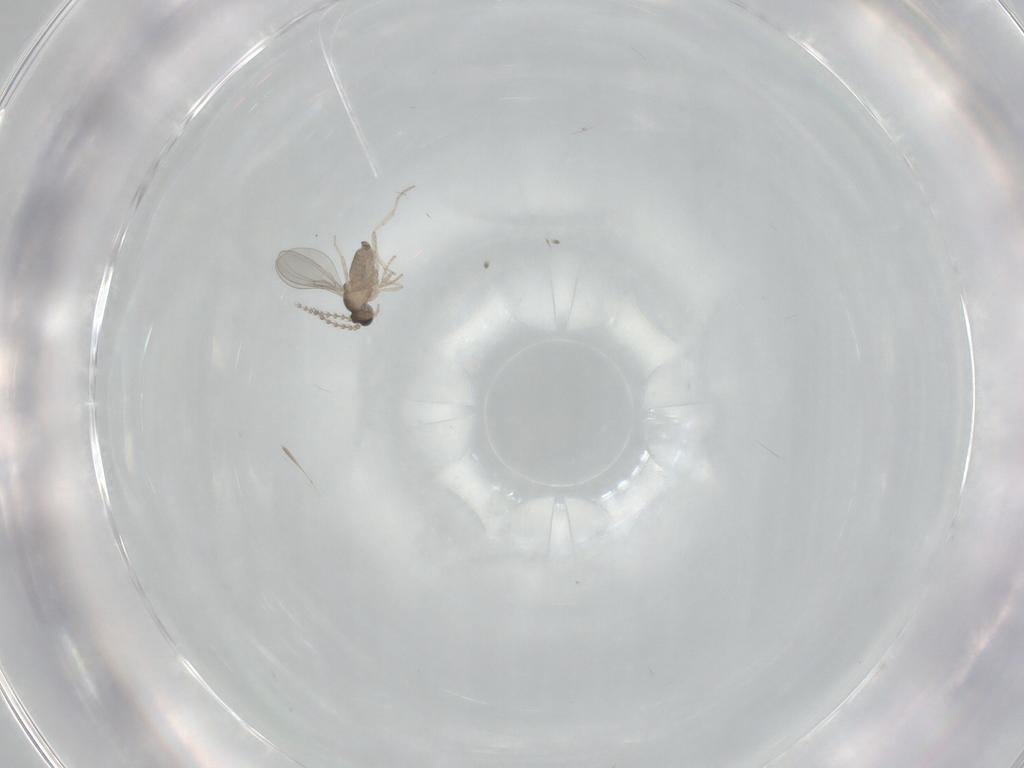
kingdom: Animalia
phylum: Arthropoda
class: Insecta
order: Diptera
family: Cecidomyiidae
